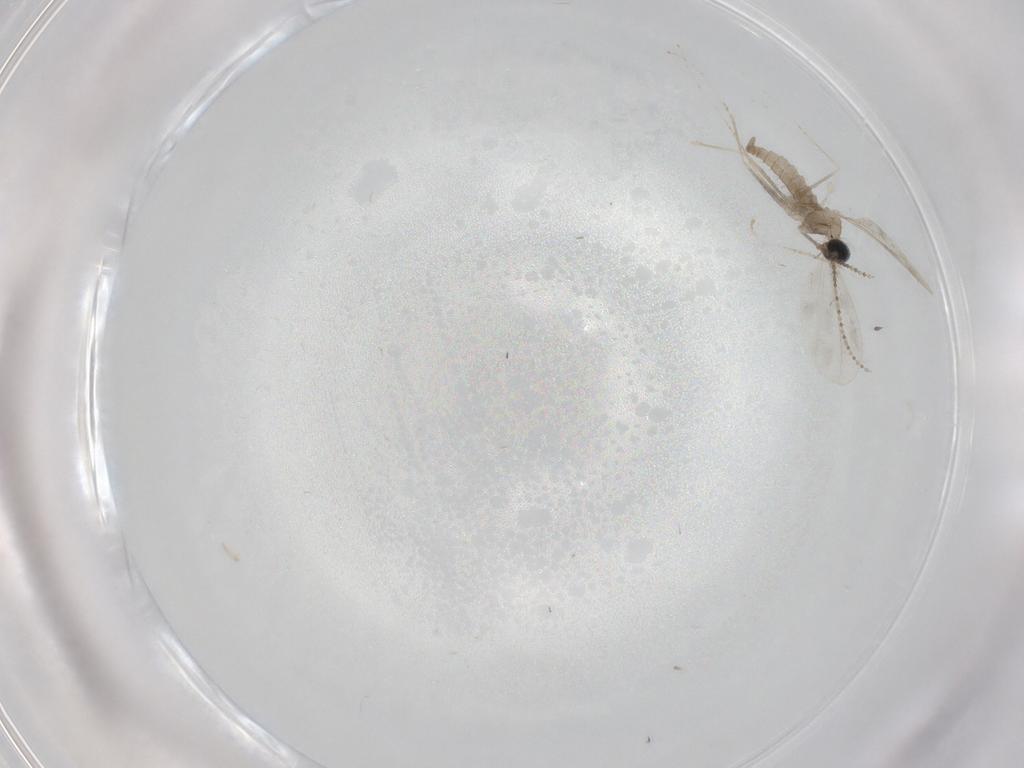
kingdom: Animalia
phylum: Arthropoda
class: Insecta
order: Diptera
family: Cecidomyiidae
